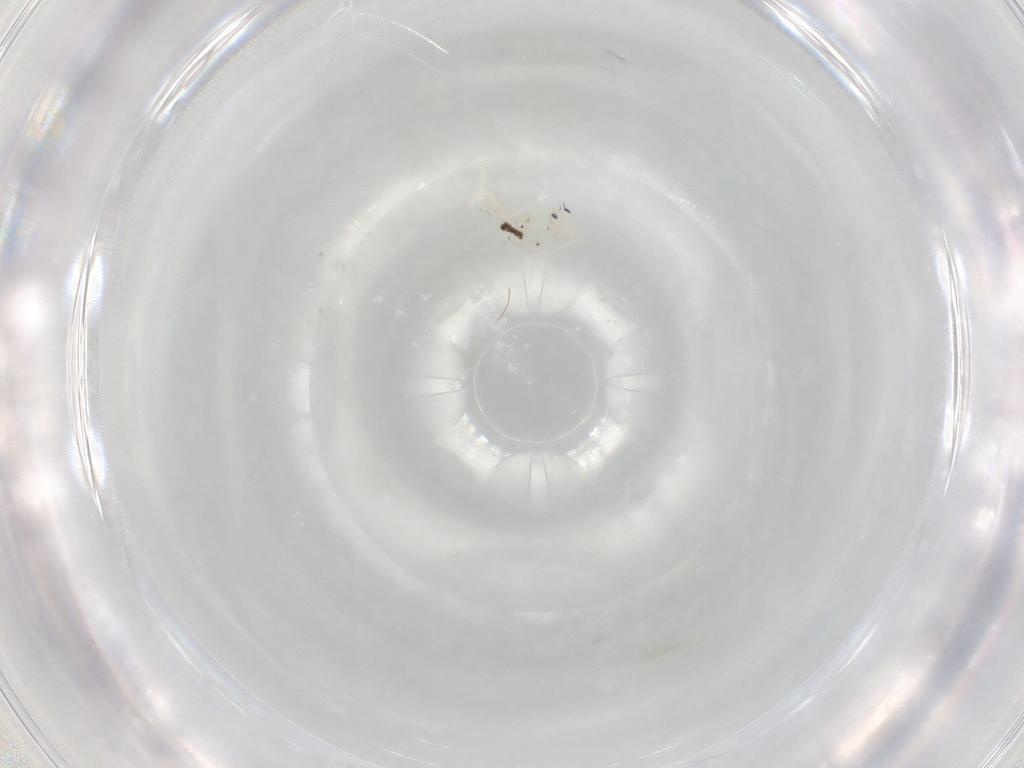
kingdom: Animalia
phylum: Arthropoda
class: Collembola
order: Entomobryomorpha
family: Entomobryidae
